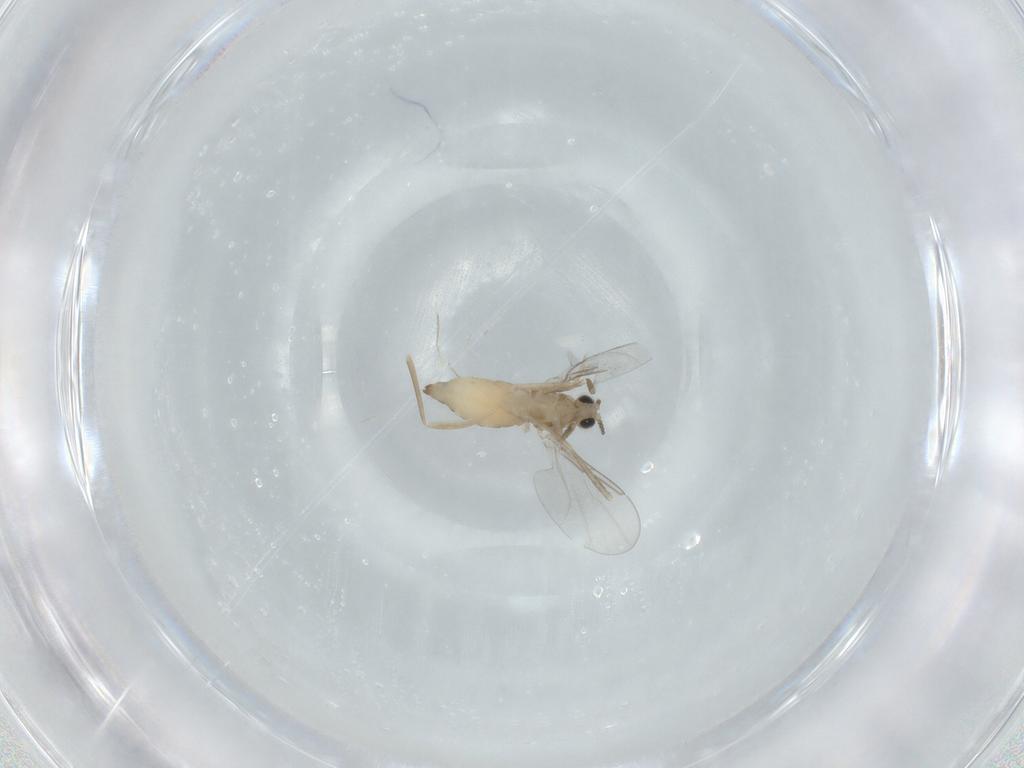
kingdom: Animalia
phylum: Arthropoda
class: Insecta
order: Diptera
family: Cecidomyiidae
